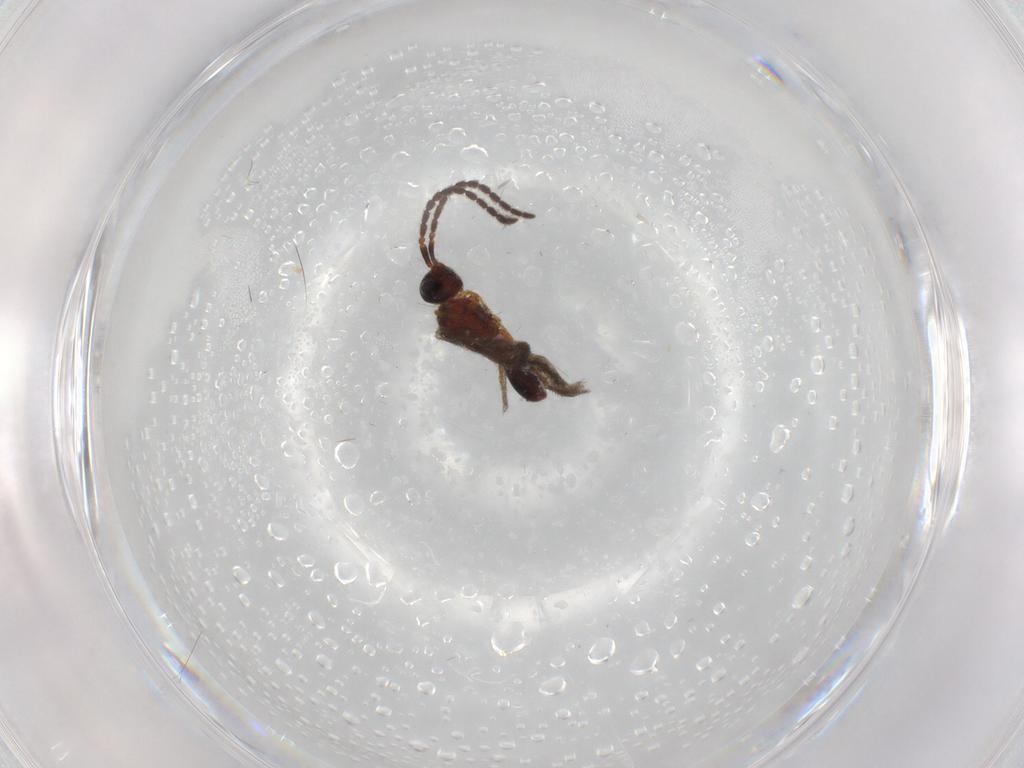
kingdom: Animalia
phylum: Arthropoda
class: Insecta
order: Hymenoptera
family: Diapriidae
